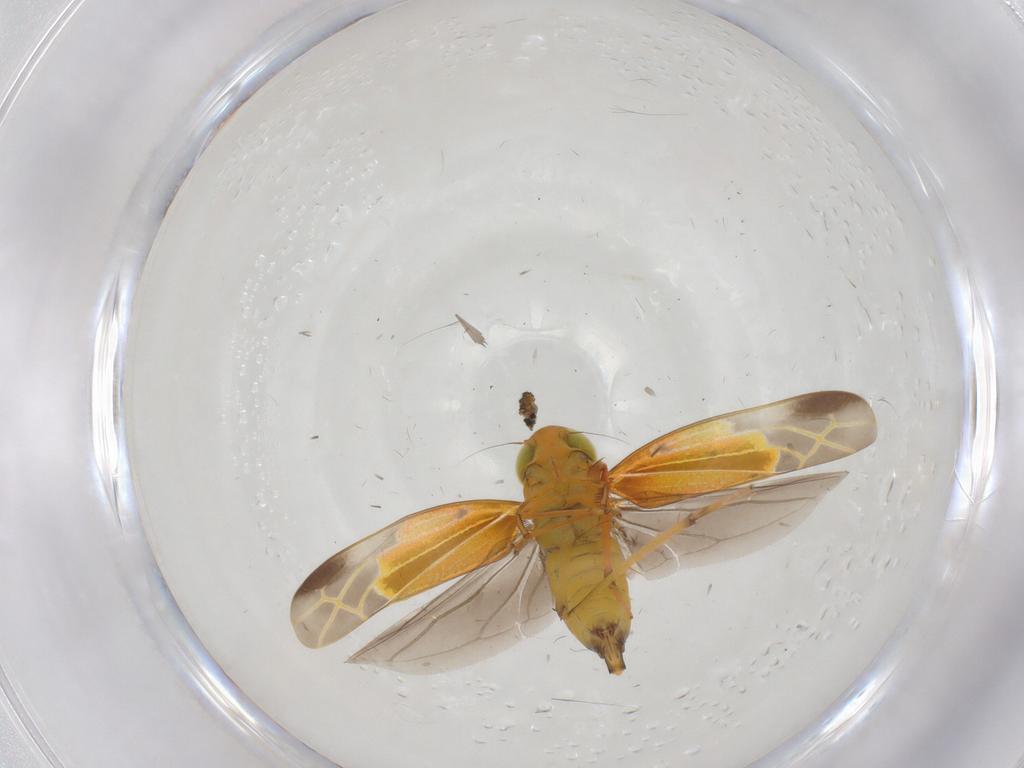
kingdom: Animalia
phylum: Arthropoda
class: Insecta
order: Hemiptera
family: Cicadellidae
